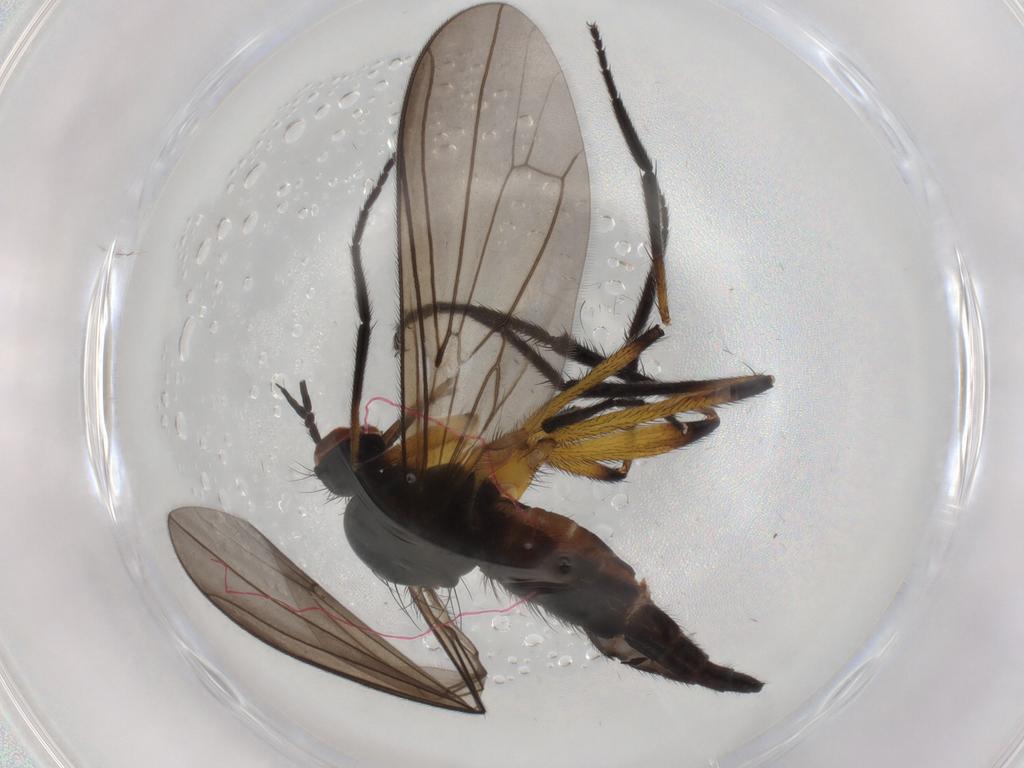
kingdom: Animalia
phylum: Arthropoda
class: Insecta
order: Diptera
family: Empididae
